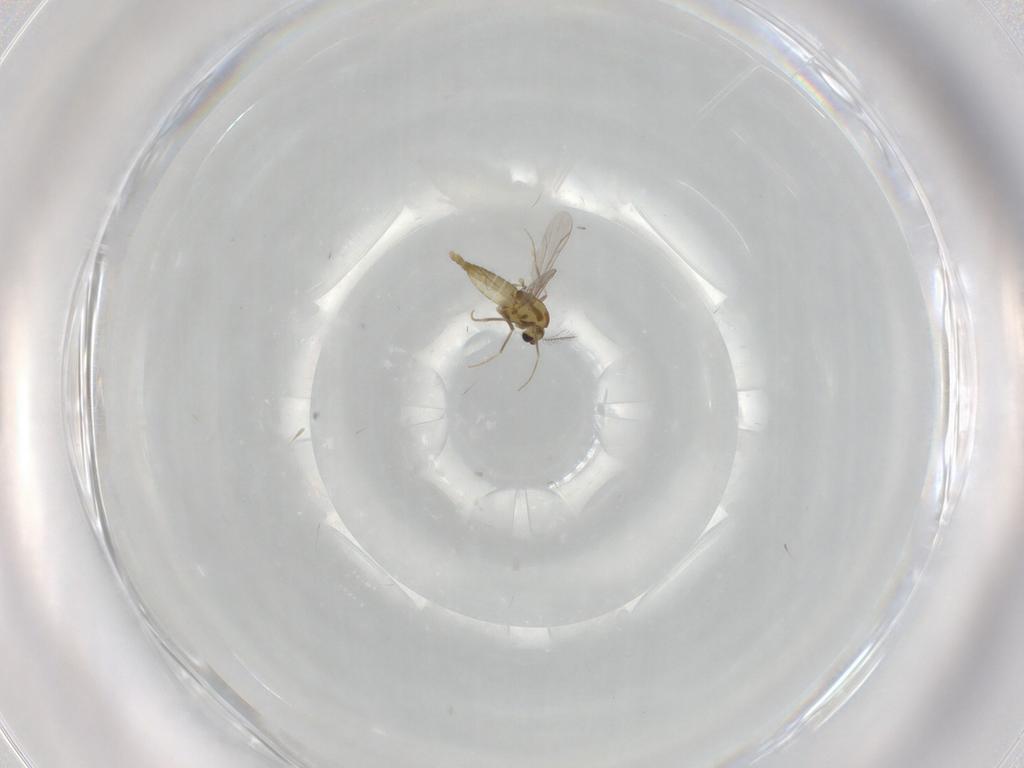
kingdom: Animalia
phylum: Arthropoda
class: Insecta
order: Diptera
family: Chironomidae
